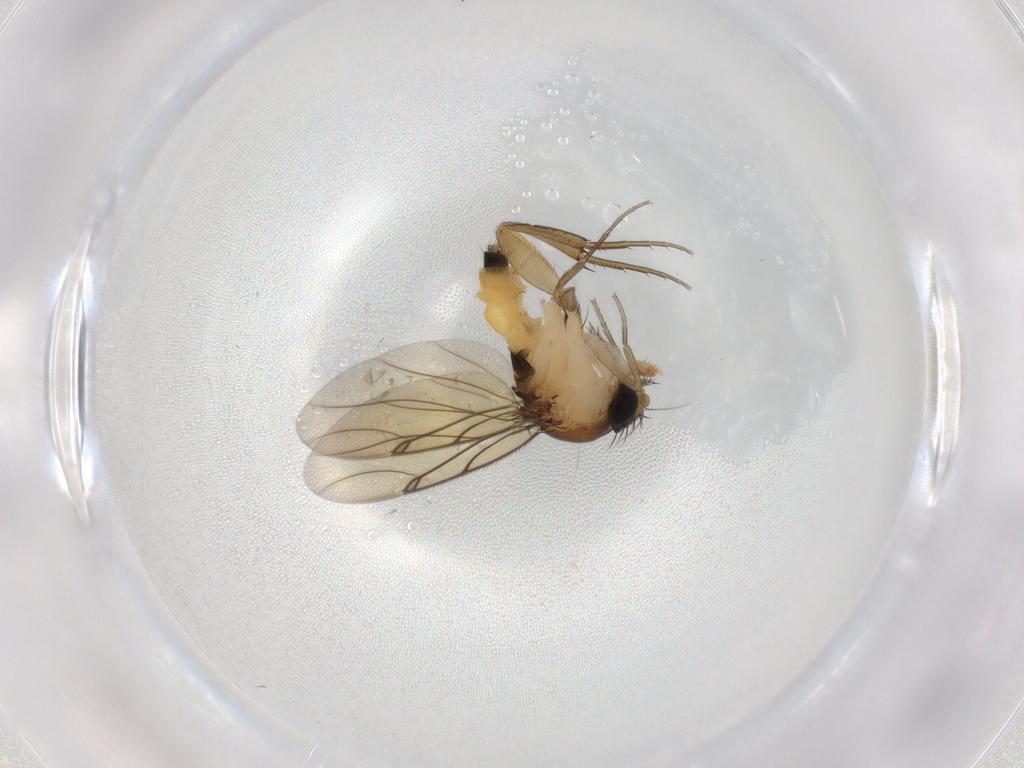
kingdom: Animalia
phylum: Arthropoda
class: Insecta
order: Diptera
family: Phoridae
